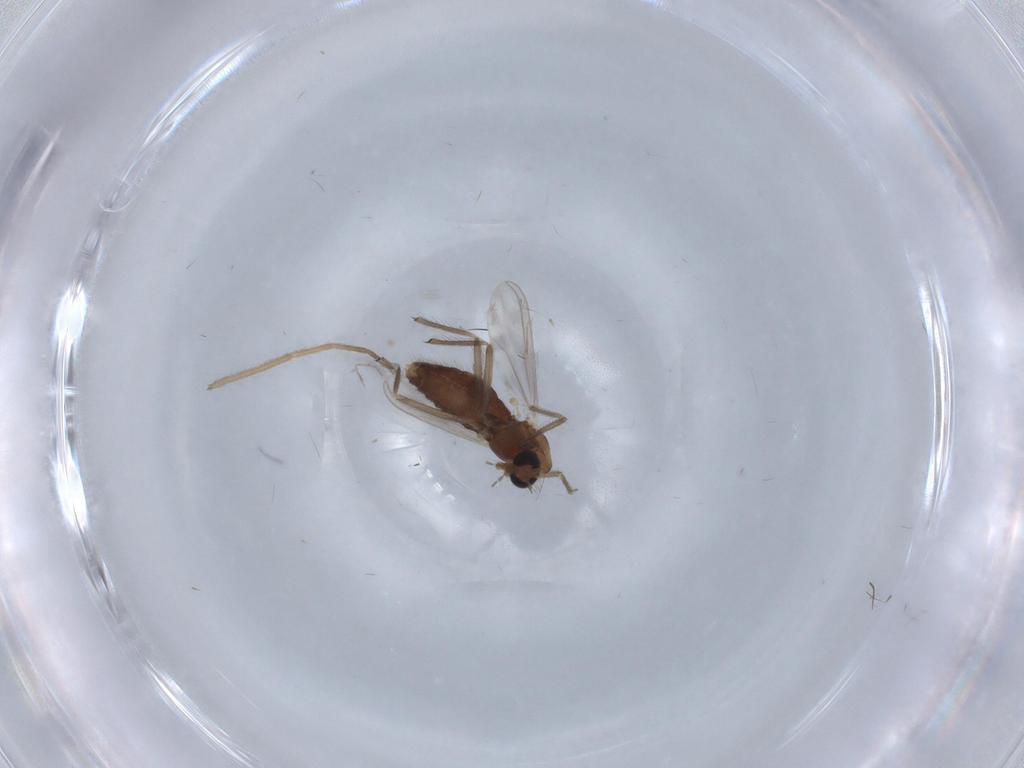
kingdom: Animalia
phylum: Arthropoda
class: Insecta
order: Diptera
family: Chironomidae
